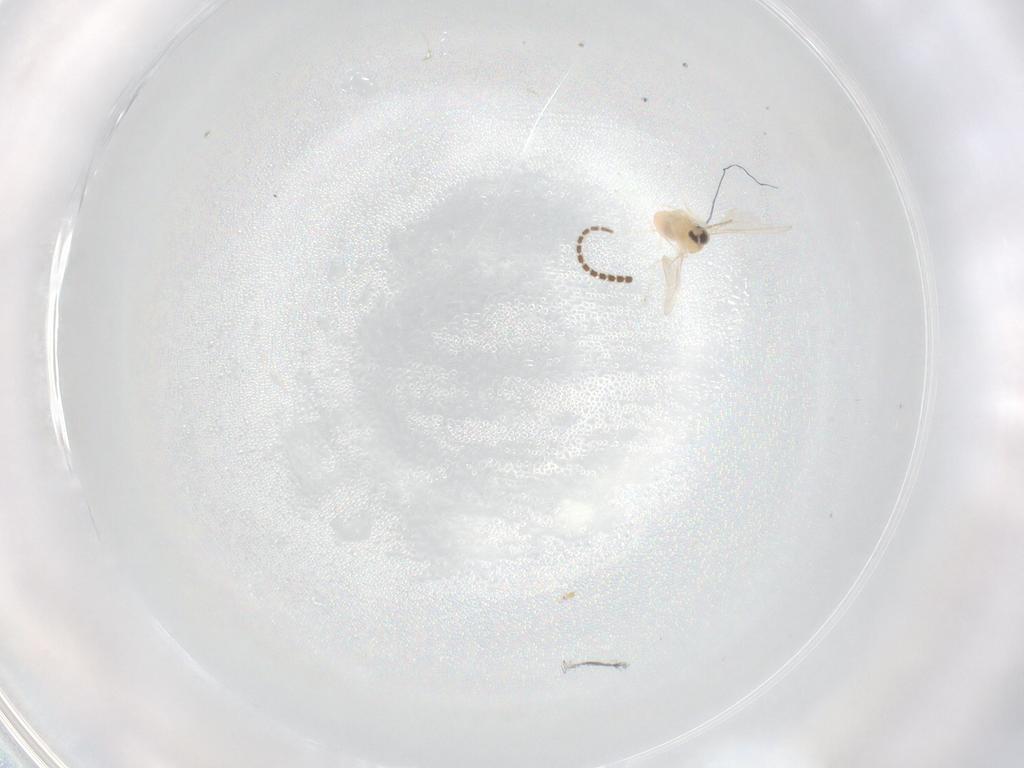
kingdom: Animalia
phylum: Arthropoda
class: Insecta
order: Diptera
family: Cecidomyiidae
